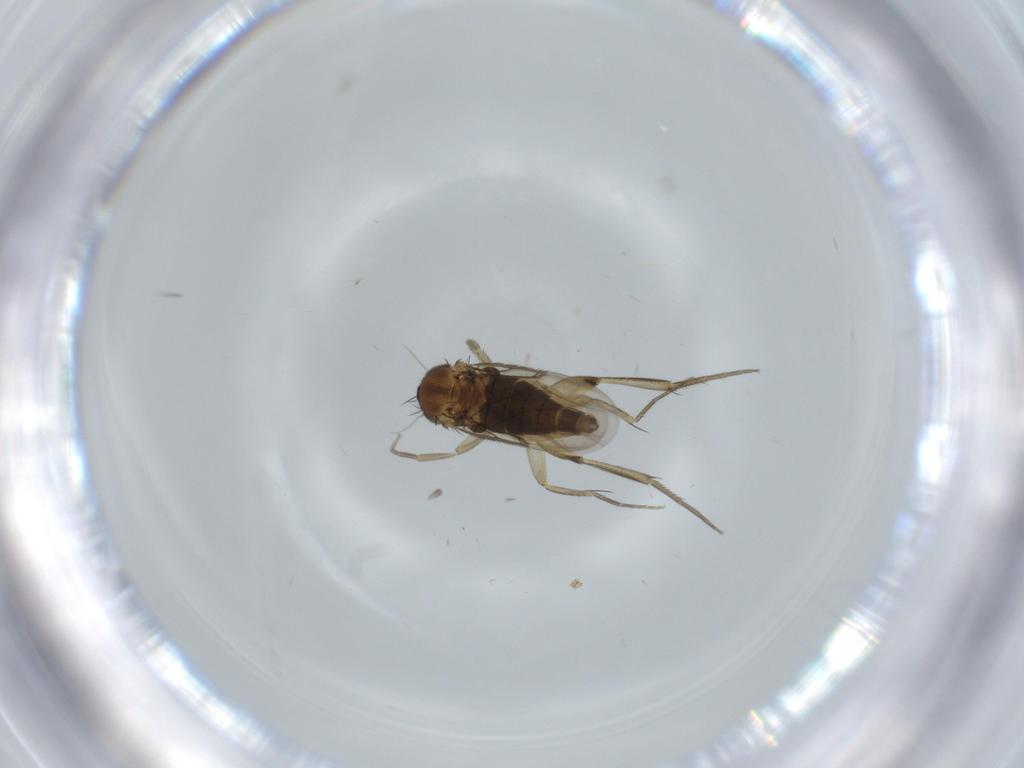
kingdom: Animalia
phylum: Arthropoda
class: Insecta
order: Diptera
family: Phoridae
